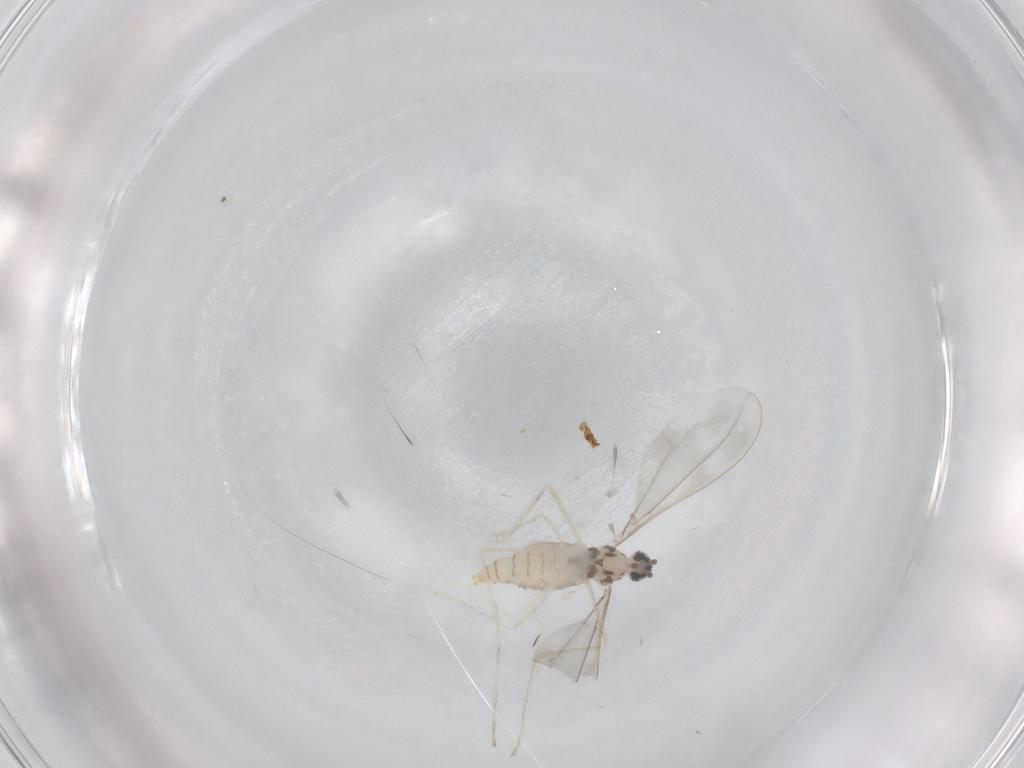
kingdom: Animalia
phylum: Arthropoda
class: Insecta
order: Diptera
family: Cecidomyiidae
